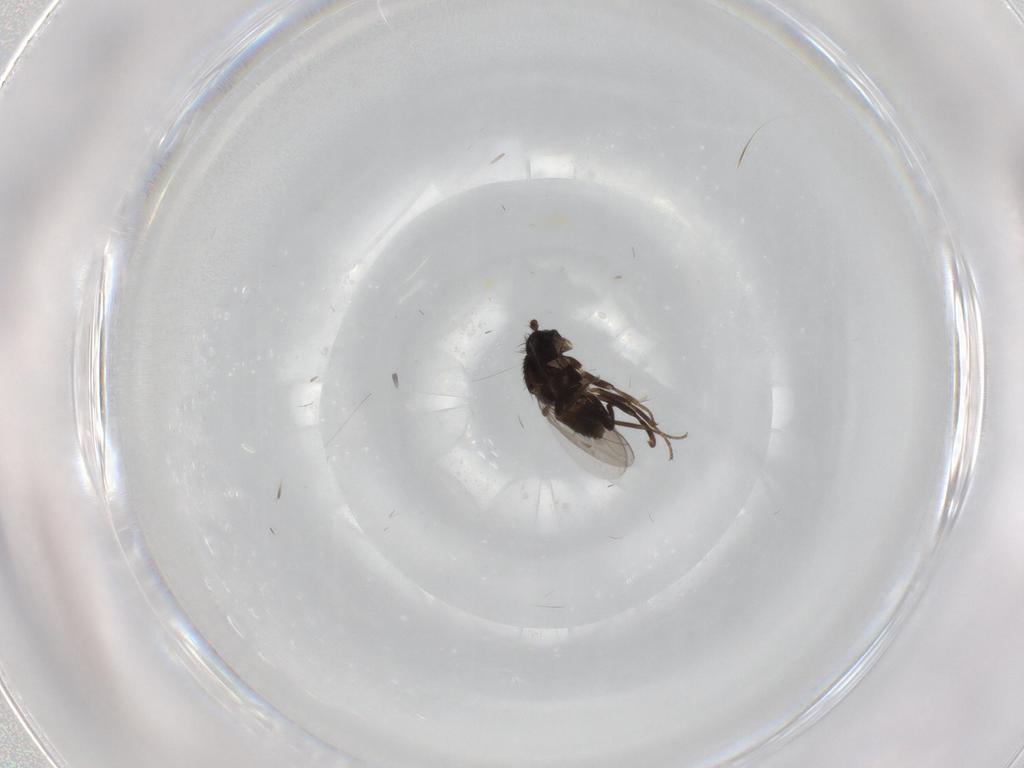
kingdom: Animalia
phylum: Arthropoda
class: Insecta
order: Diptera
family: Sphaeroceridae
